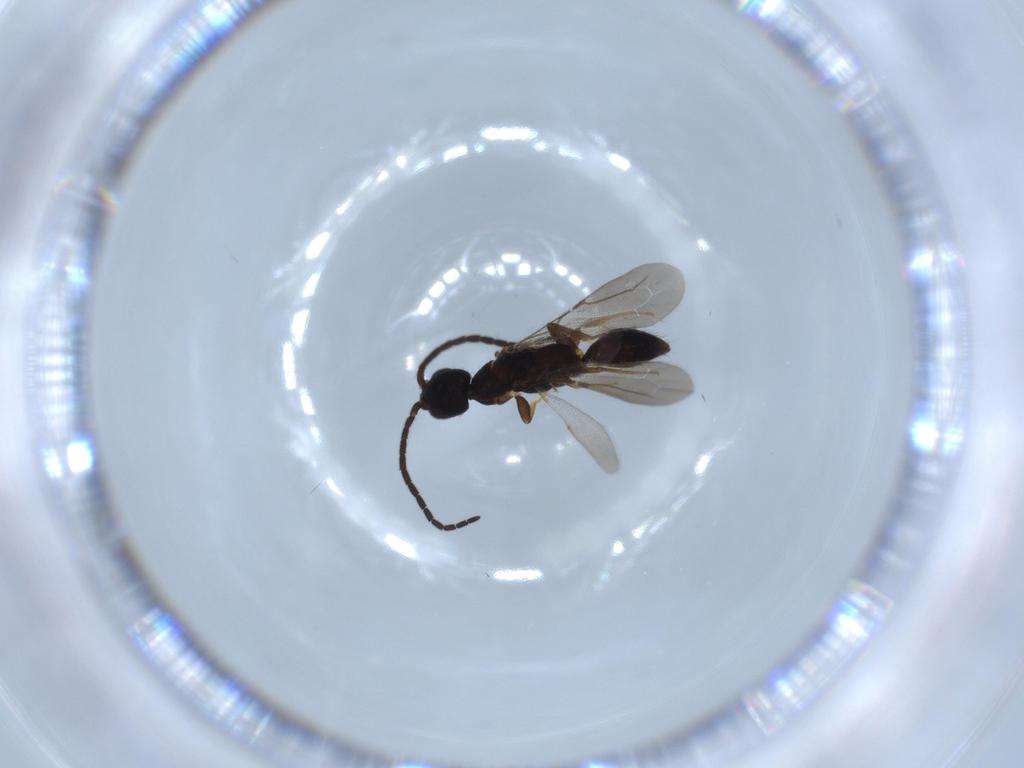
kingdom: Animalia
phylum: Arthropoda
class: Insecta
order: Hymenoptera
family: Bethylidae
